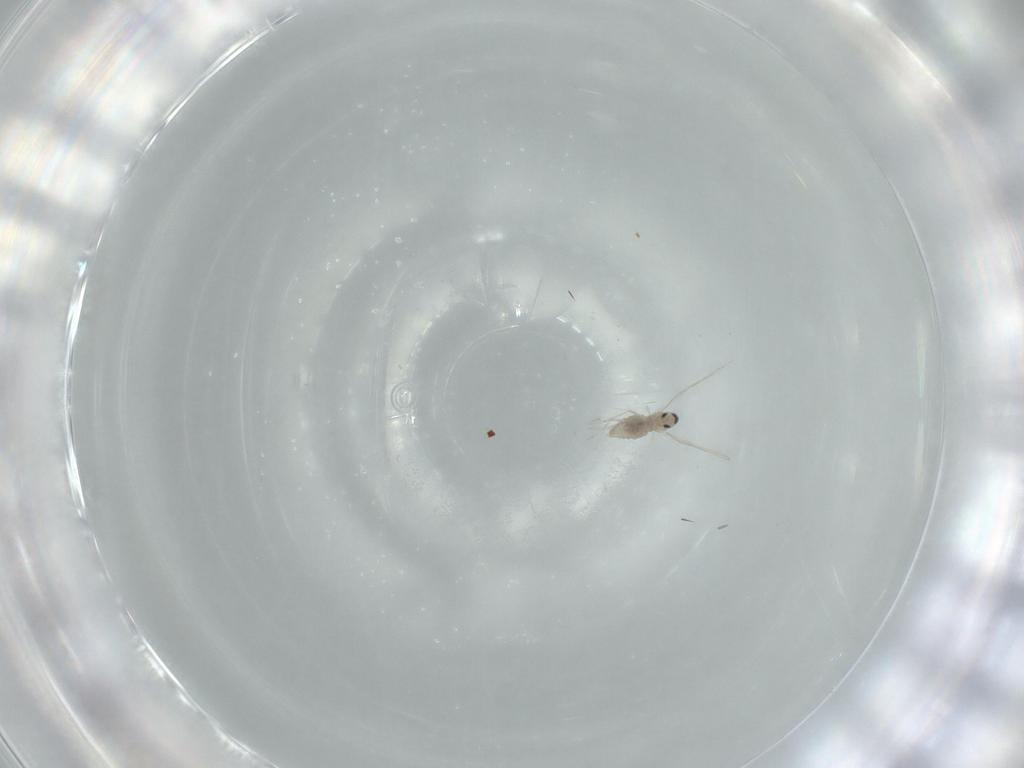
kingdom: Animalia
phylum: Arthropoda
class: Insecta
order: Diptera
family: Cecidomyiidae
